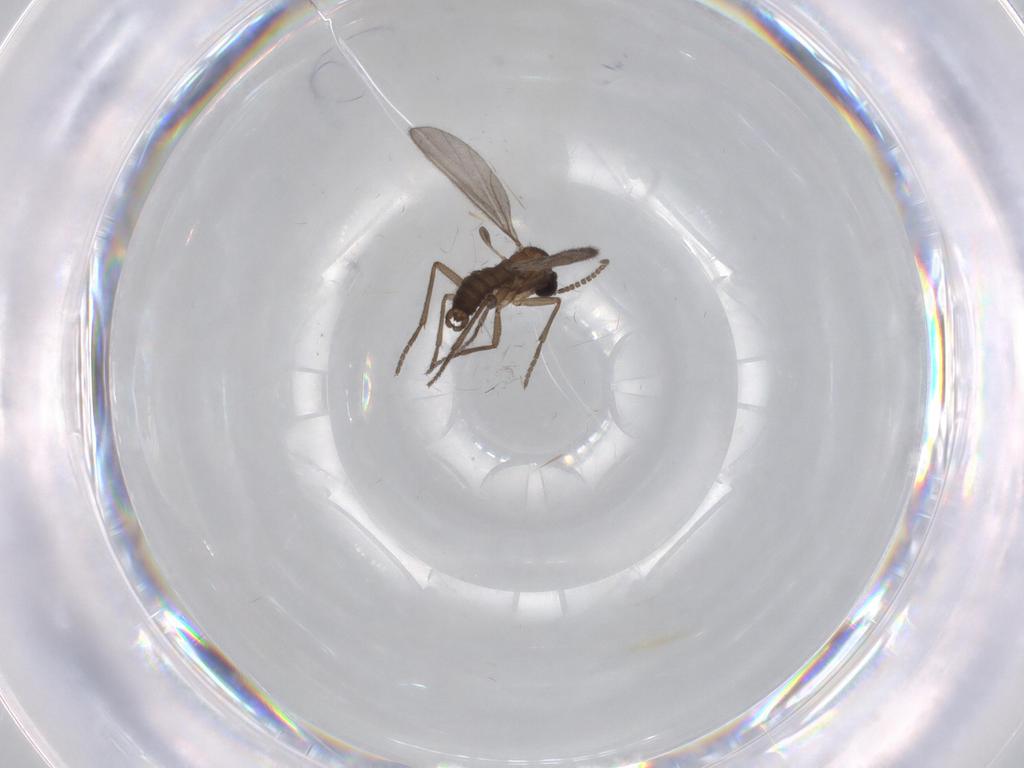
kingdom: Animalia
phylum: Arthropoda
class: Insecta
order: Diptera
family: Sciaridae
